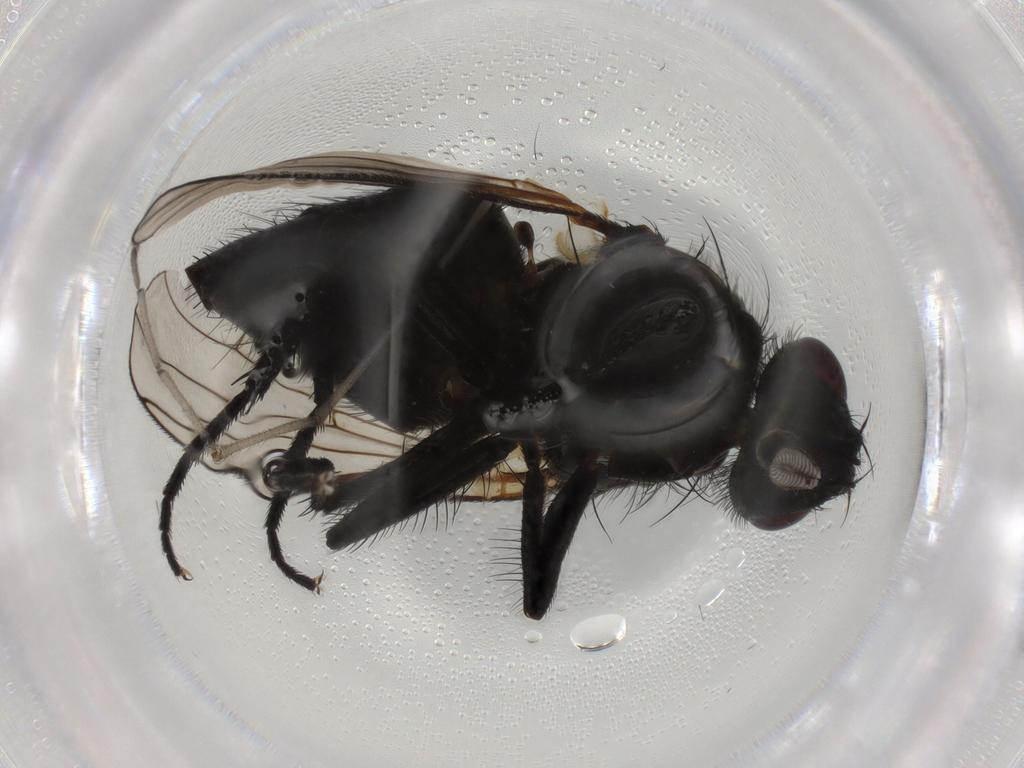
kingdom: Animalia
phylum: Arthropoda
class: Insecta
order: Diptera
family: Muscidae
